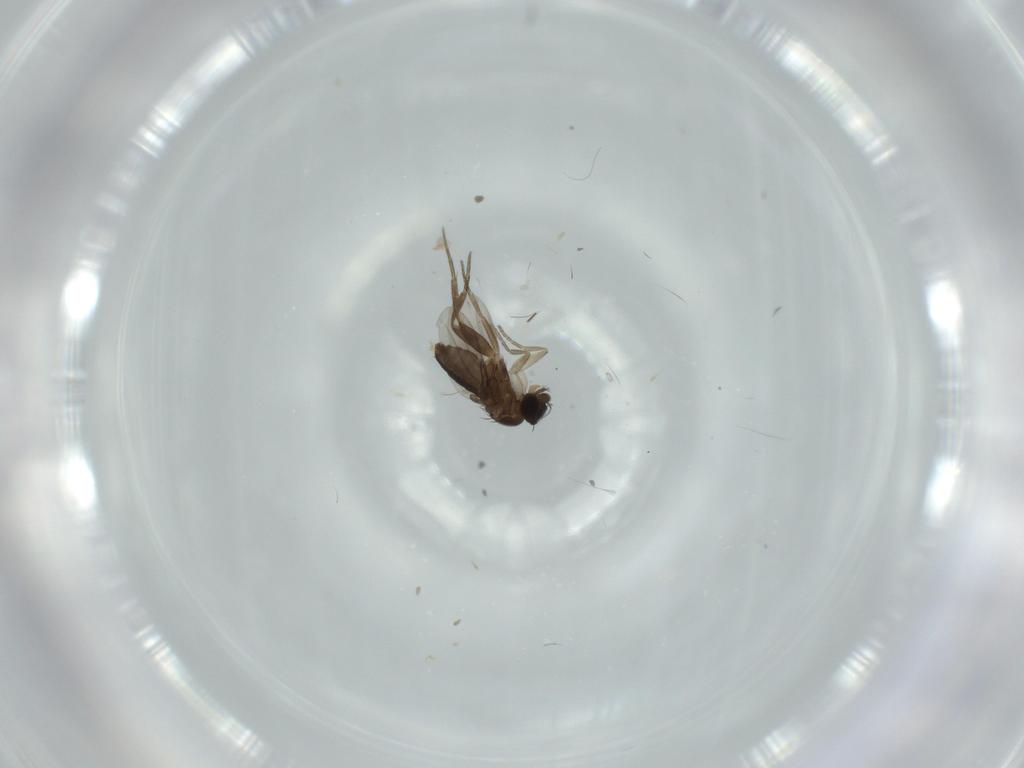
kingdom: Animalia
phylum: Arthropoda
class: Insecta
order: Diptera
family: Phoridae
